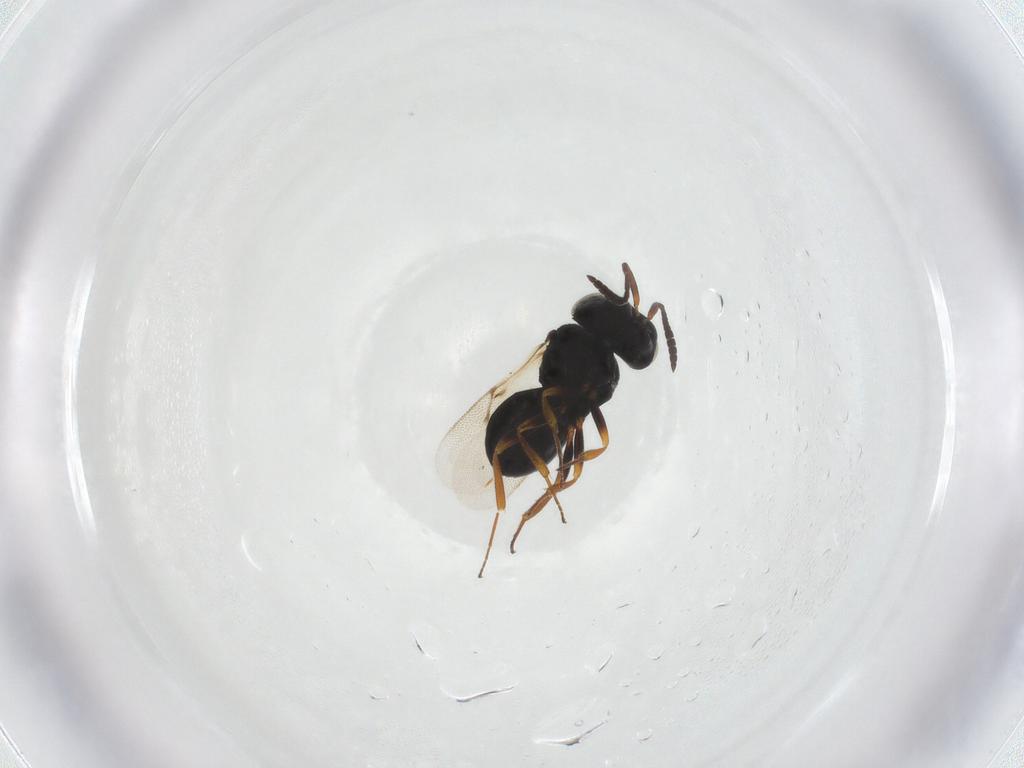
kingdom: Animalia
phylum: Arthropoda
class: Insecta
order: Hymenoptera
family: Scelionidae
